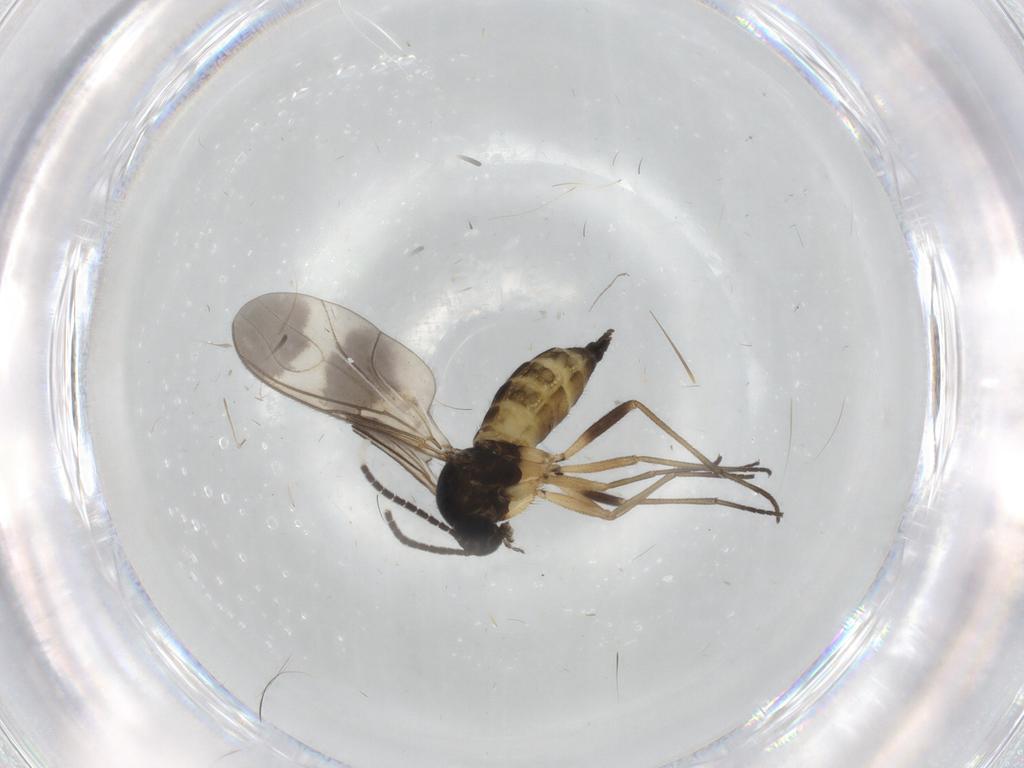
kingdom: Animalia
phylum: Arthropoda
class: Insecta
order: Diptera
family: Sciaridae
